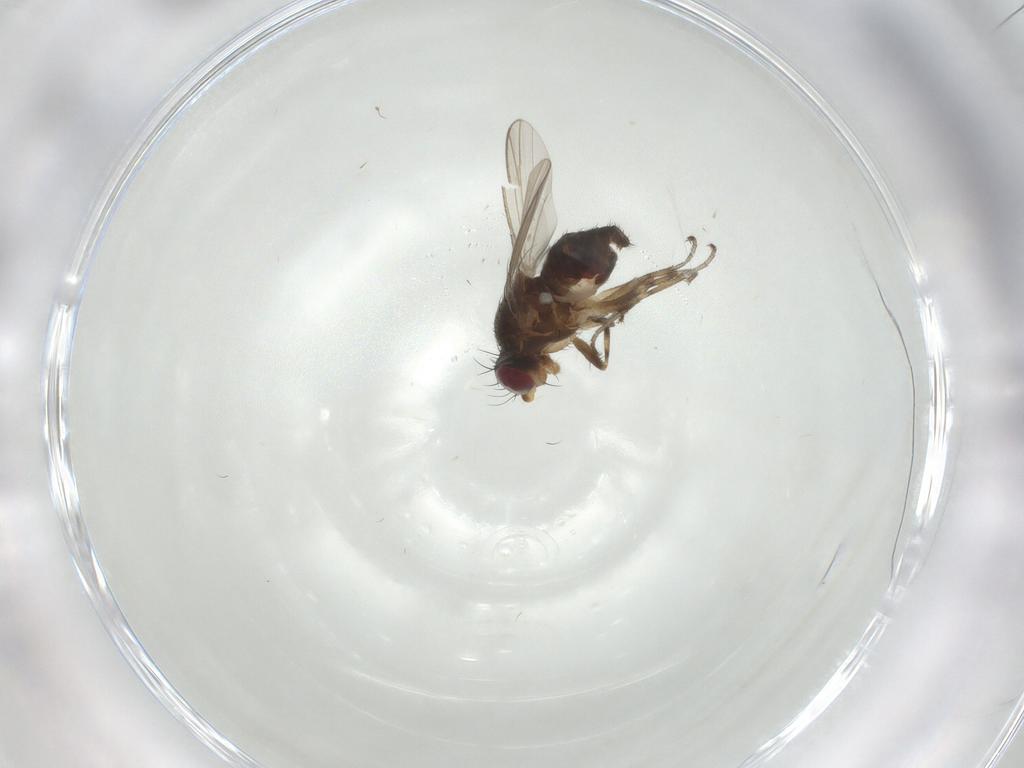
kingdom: Animalia
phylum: Arthropoda
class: Insecta
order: Diptera
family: Heleomyzidae
